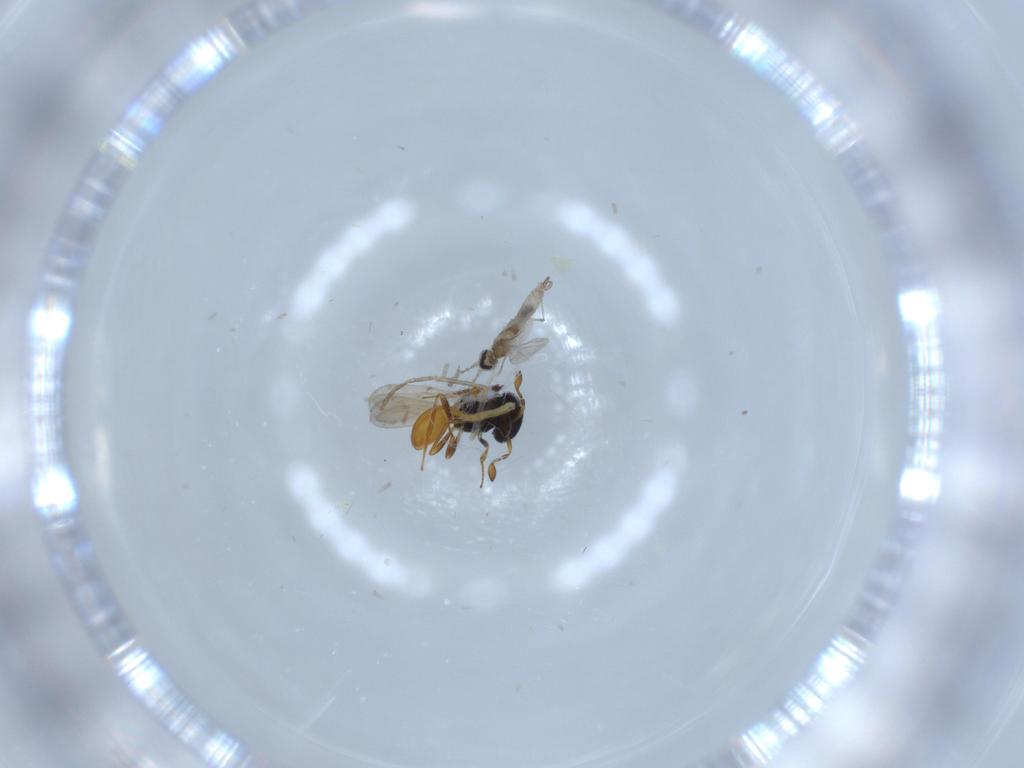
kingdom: Animalia
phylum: Arthropoda
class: Insecta
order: Hymenoptera
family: Scelionidae
